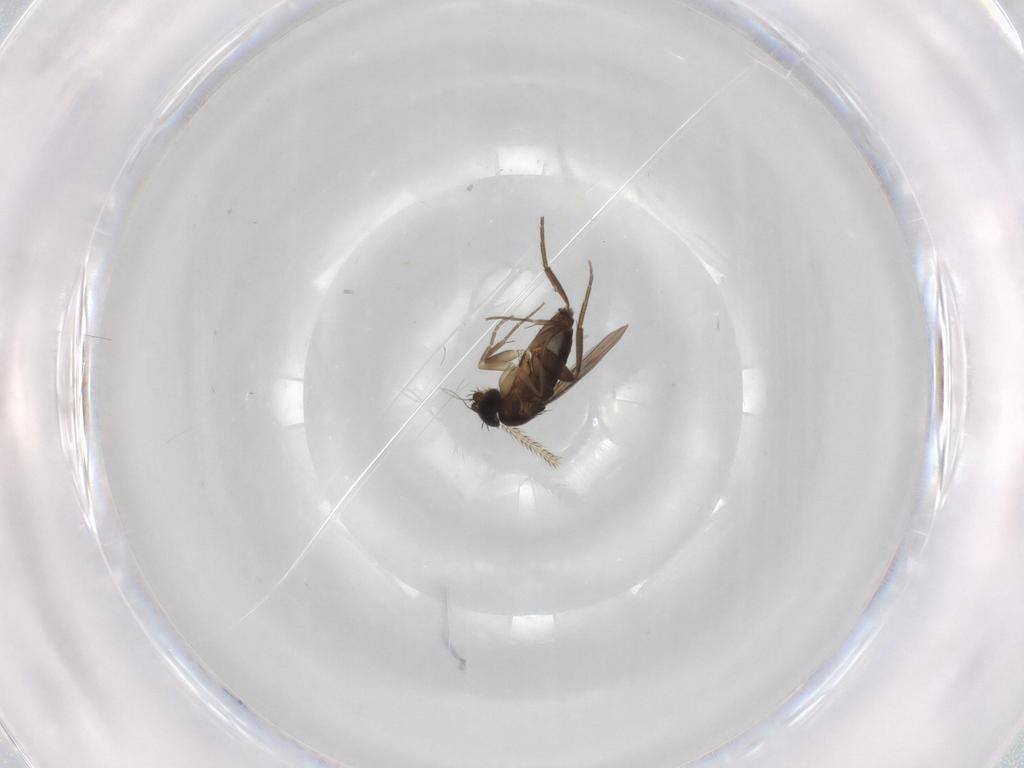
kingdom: Animalia
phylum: Arthropoda
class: Insecta
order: Diptera
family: Phoridae
